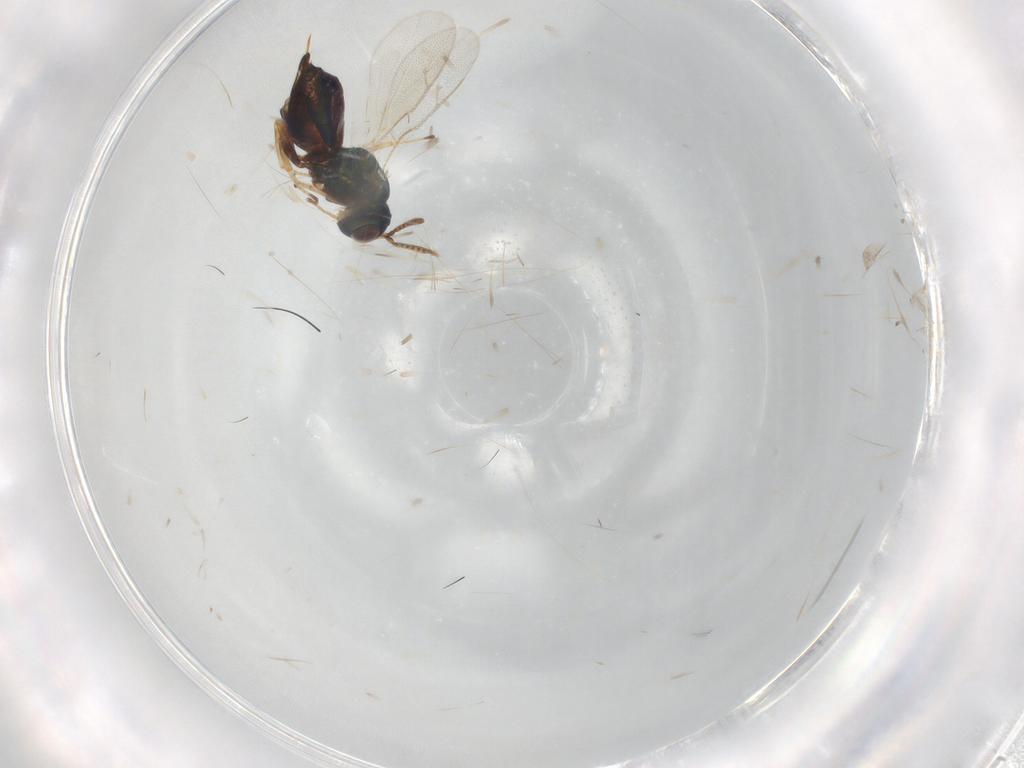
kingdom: Animalia
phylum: Arthropoda
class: Insecta
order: Hymenoptera
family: Pteromalidae
